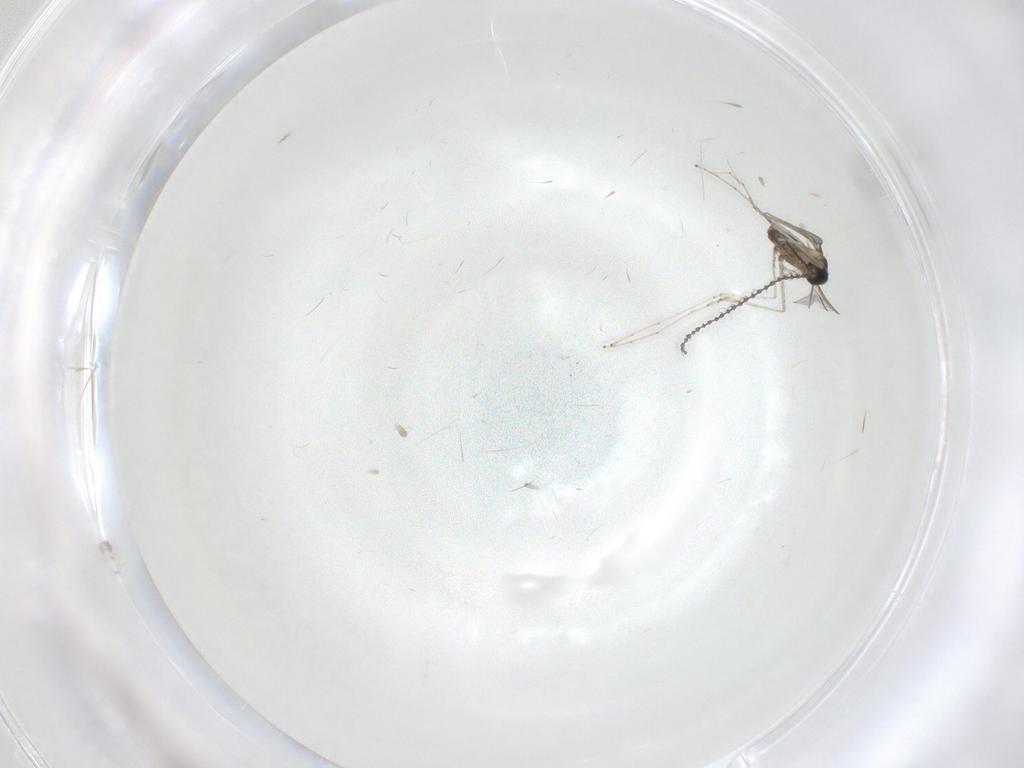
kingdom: Animalia
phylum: Arthropoda
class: Insecta
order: Diptera
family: Cecidomyiidae
